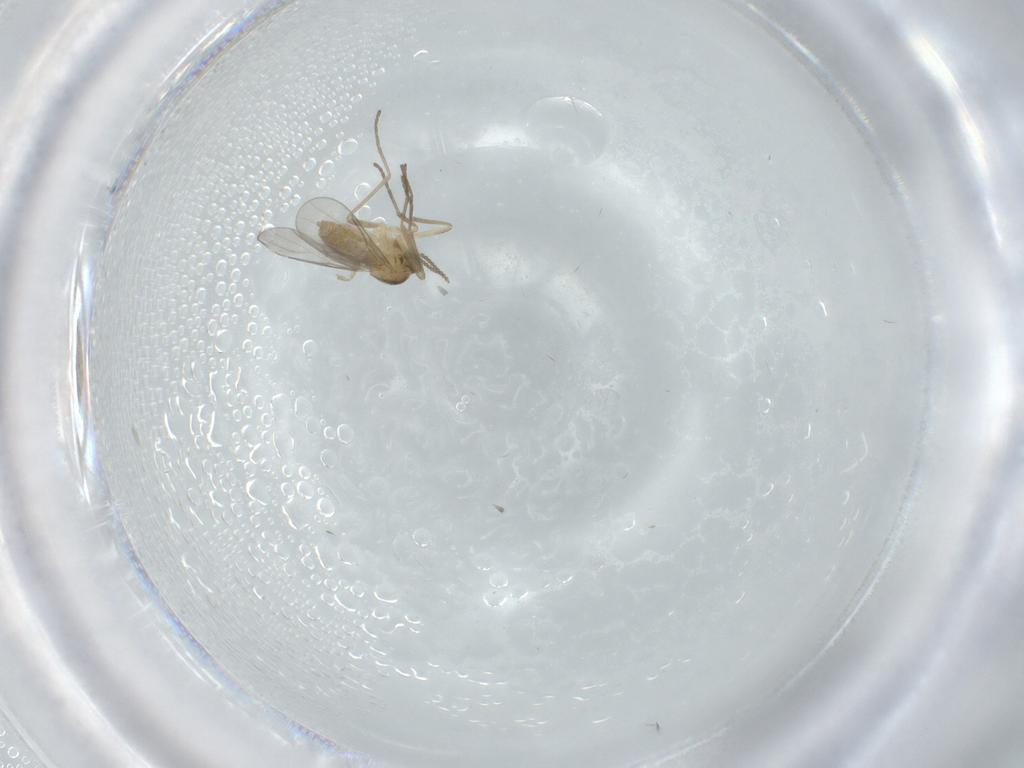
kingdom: Animalia
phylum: Arthropoda
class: Insecta
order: Diptera
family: Cecidomyiidae
